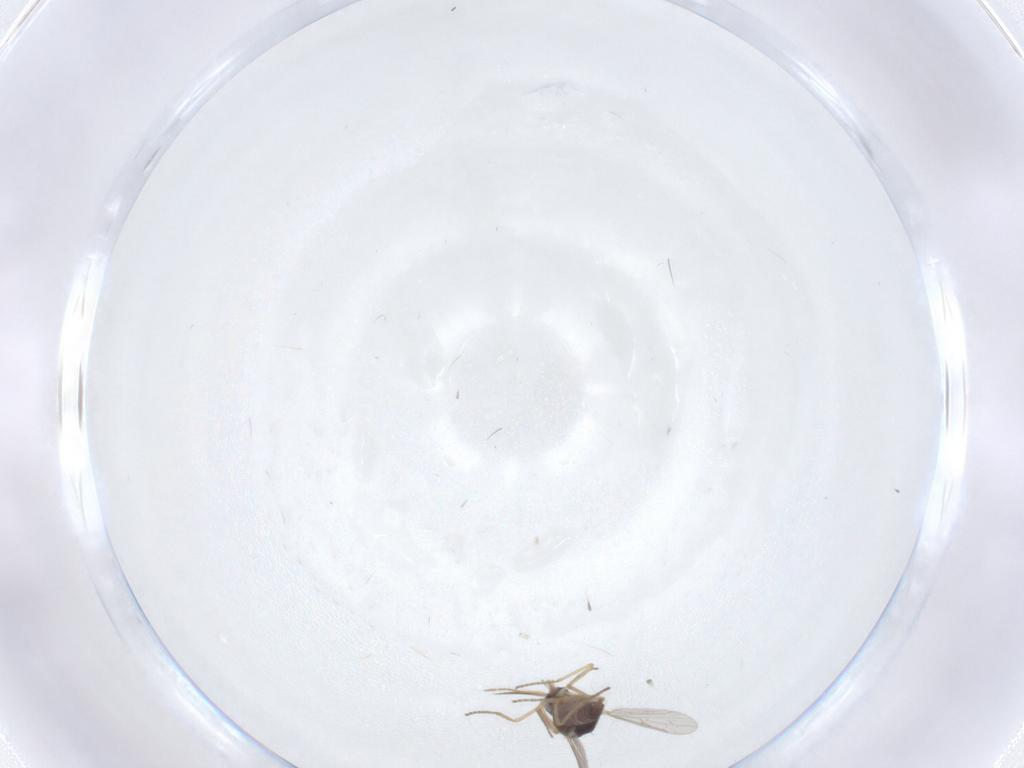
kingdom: Animalia
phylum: Arthropoda
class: Insecta
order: Diptera
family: Ceratopogonidae
